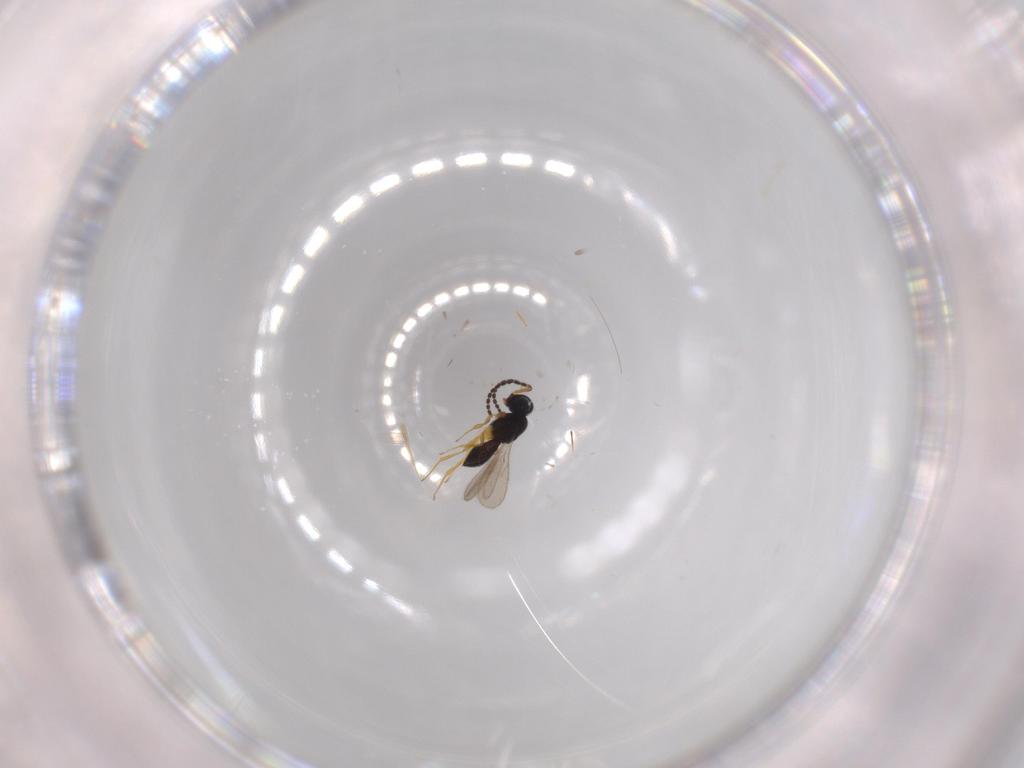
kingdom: Animalia
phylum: Arthropoda
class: Insecta
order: Hymenoptera
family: Scelionidae
